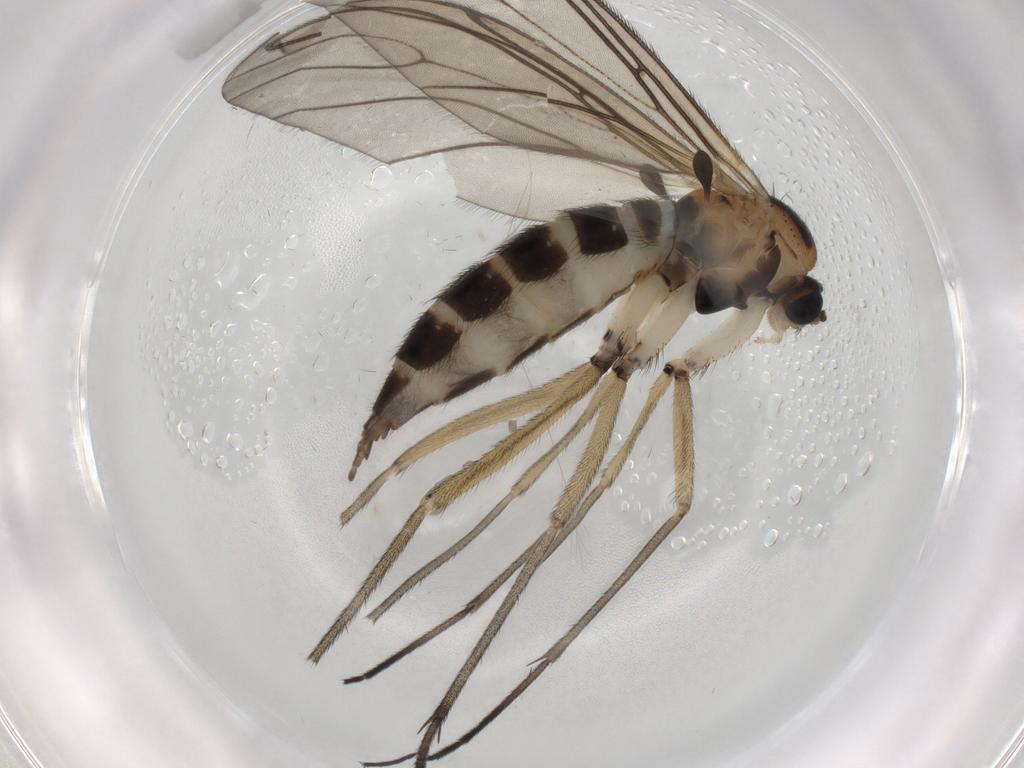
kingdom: Animalia
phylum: Arthropoda
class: Insecta
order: Diptera
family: Sciaridae
